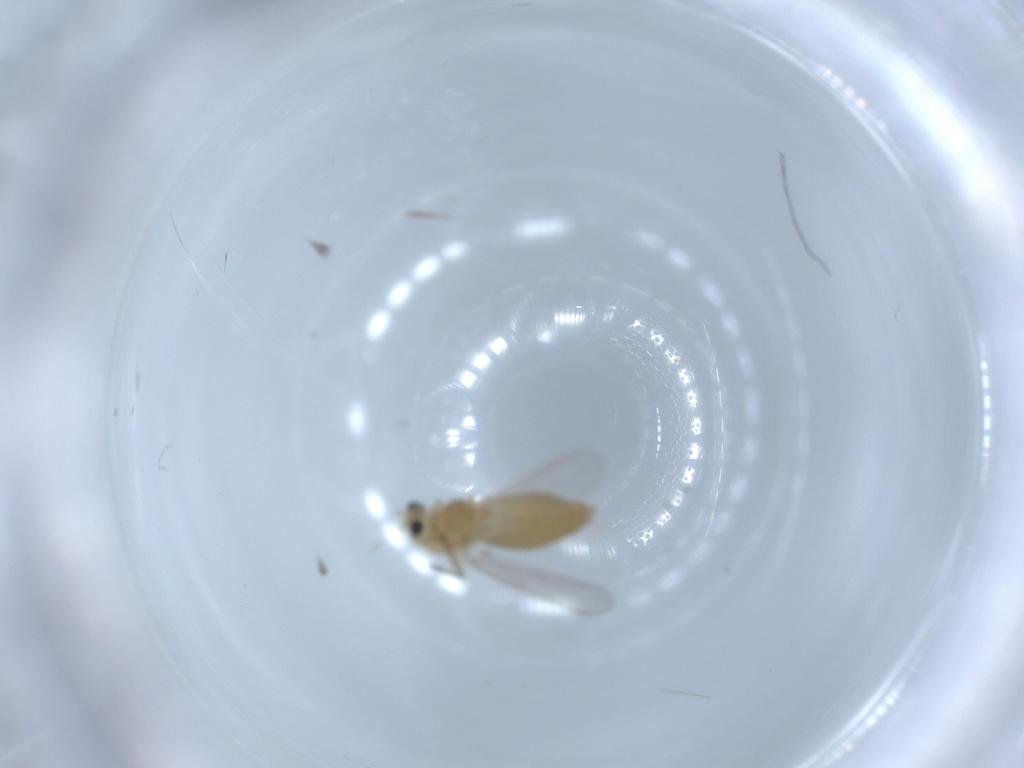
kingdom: Animalia
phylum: Arthropoda
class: Insecta
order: Diptera
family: Chironomidae
